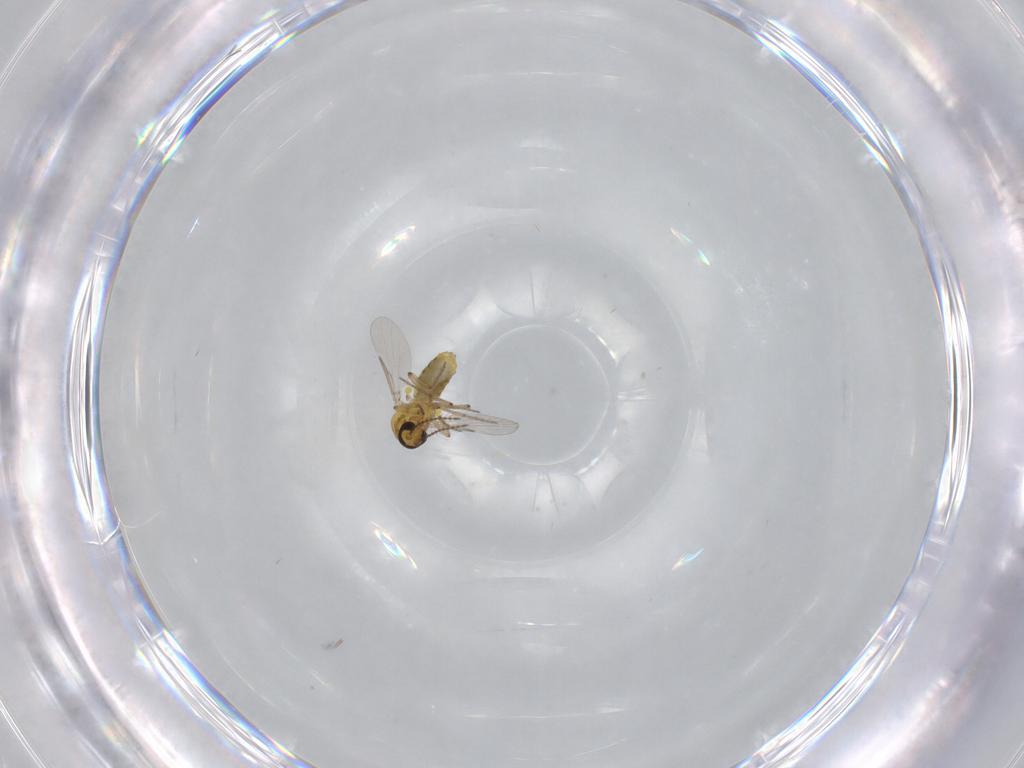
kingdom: Animalia
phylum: Arthropoda
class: Insecta
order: Diptera
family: Ceratopogonidae
